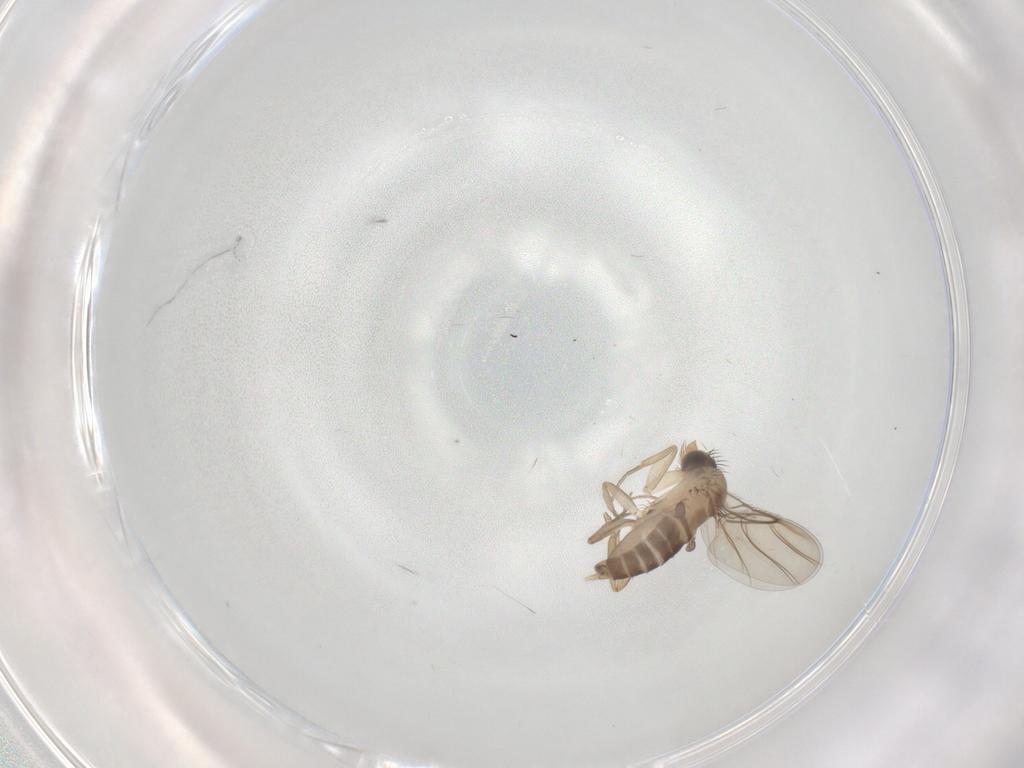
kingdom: Animalia
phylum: Arthropoda
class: Insecta
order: Diptera
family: Phoridae
